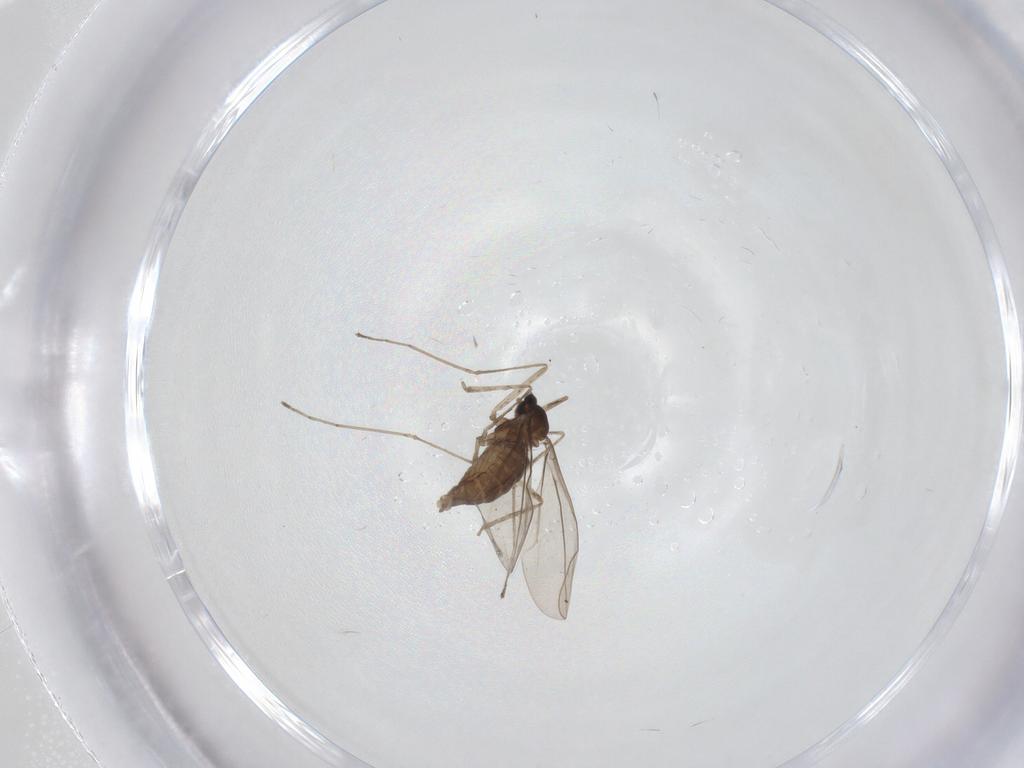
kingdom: Animalia
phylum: Arthropoda
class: Insecta
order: Diptera
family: Cecidomyiidae
